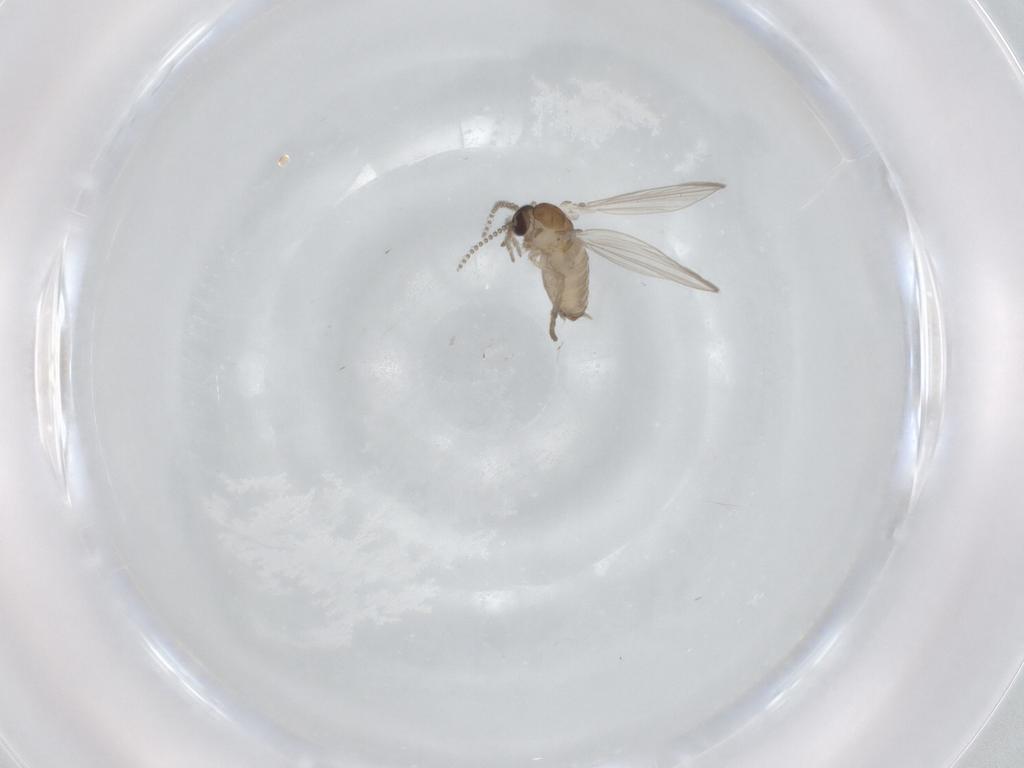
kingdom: Animalia
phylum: Arthropoda
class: Insecta
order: Diptera
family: Psychodidae
